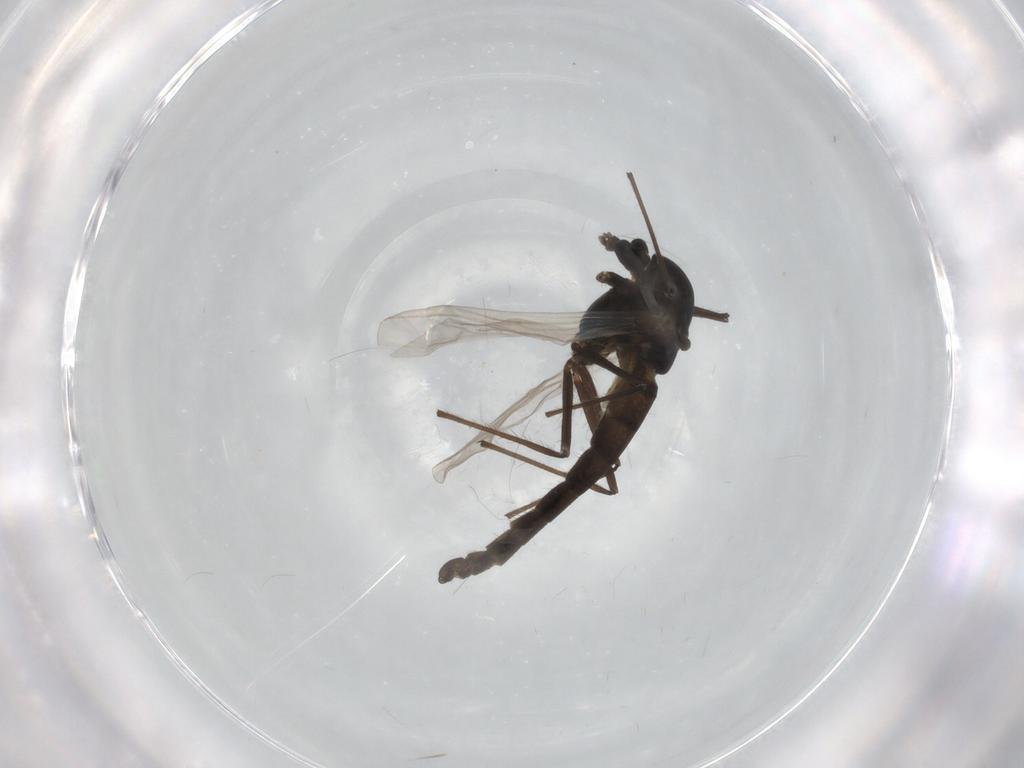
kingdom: Animalia
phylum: Arthropoda
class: Insecta
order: Diptera
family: Chironomidae
